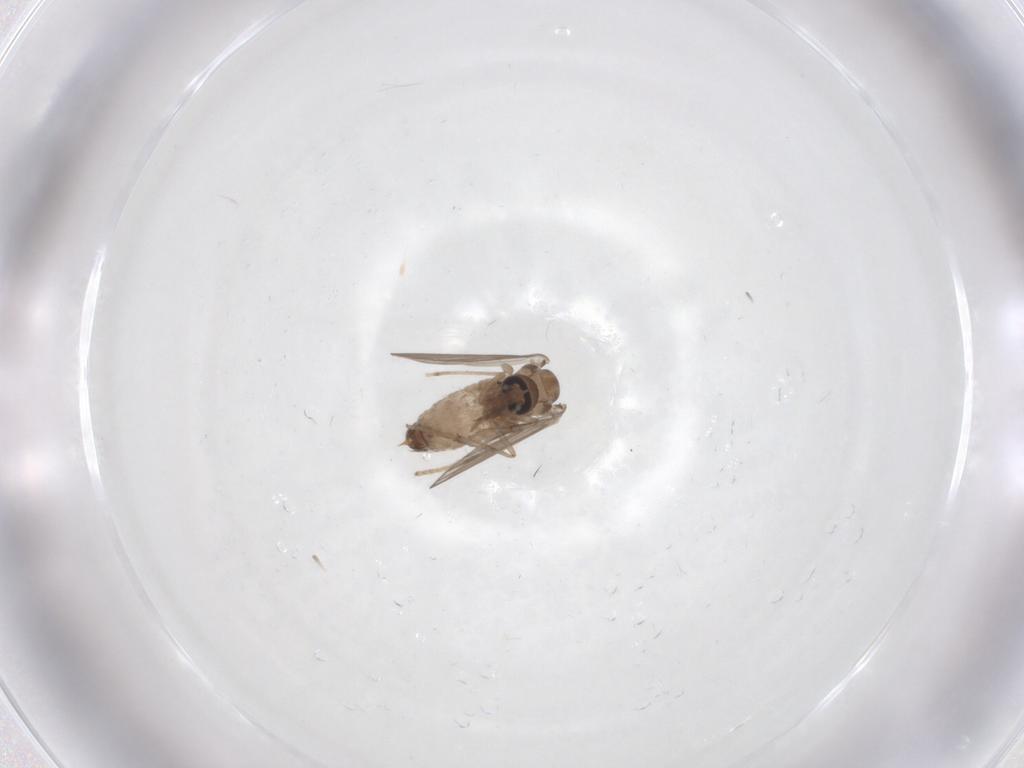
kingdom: Animalia
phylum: Arthropoda
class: Insecta
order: Diptera
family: Psychodidae
